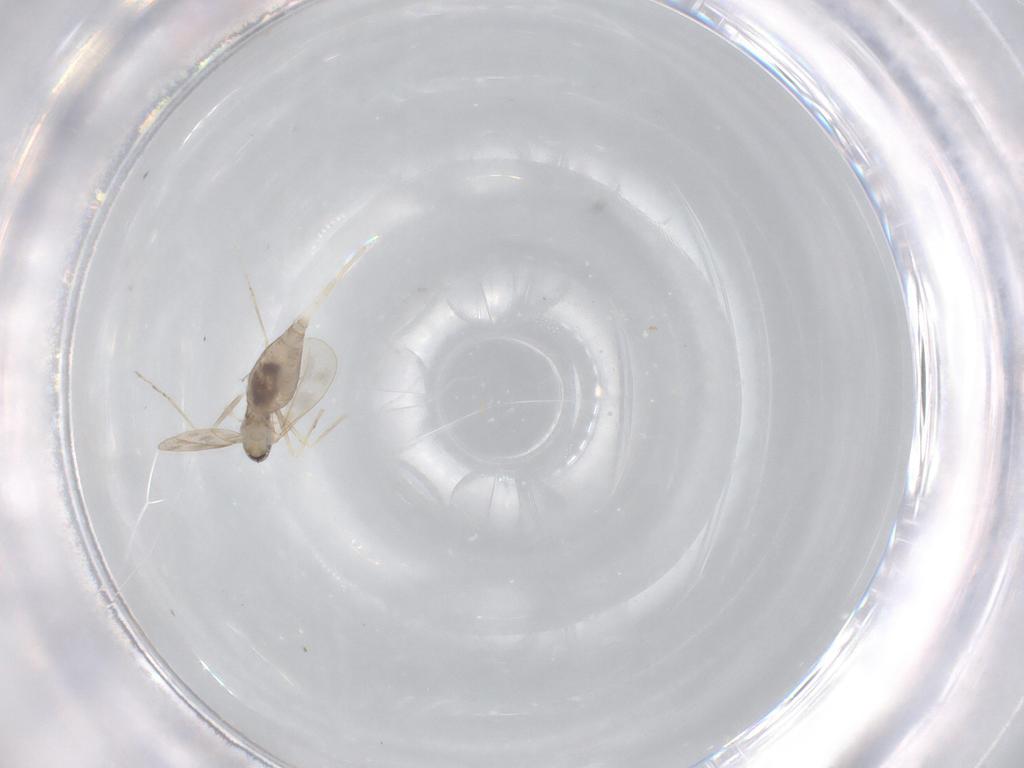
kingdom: Animalia
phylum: Arthropoda
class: Insecta
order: Diptera
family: Cecidomyiidae
